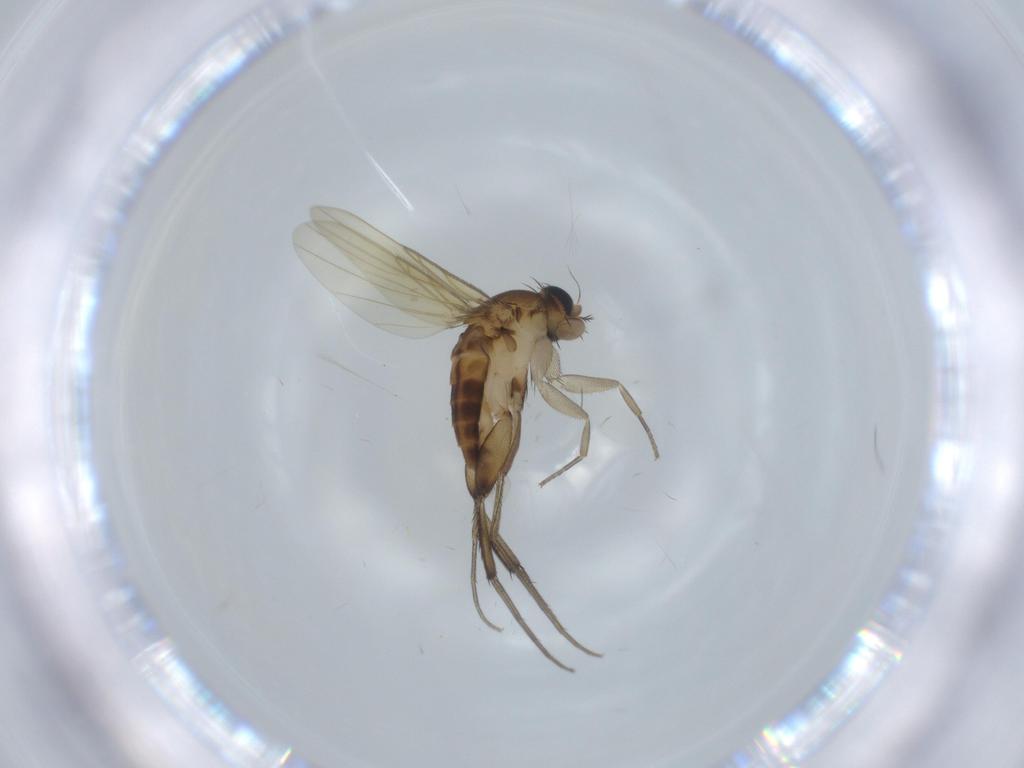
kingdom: Animalia
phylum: Arthropoda
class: Insecta
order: Diptera
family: Phoridae
